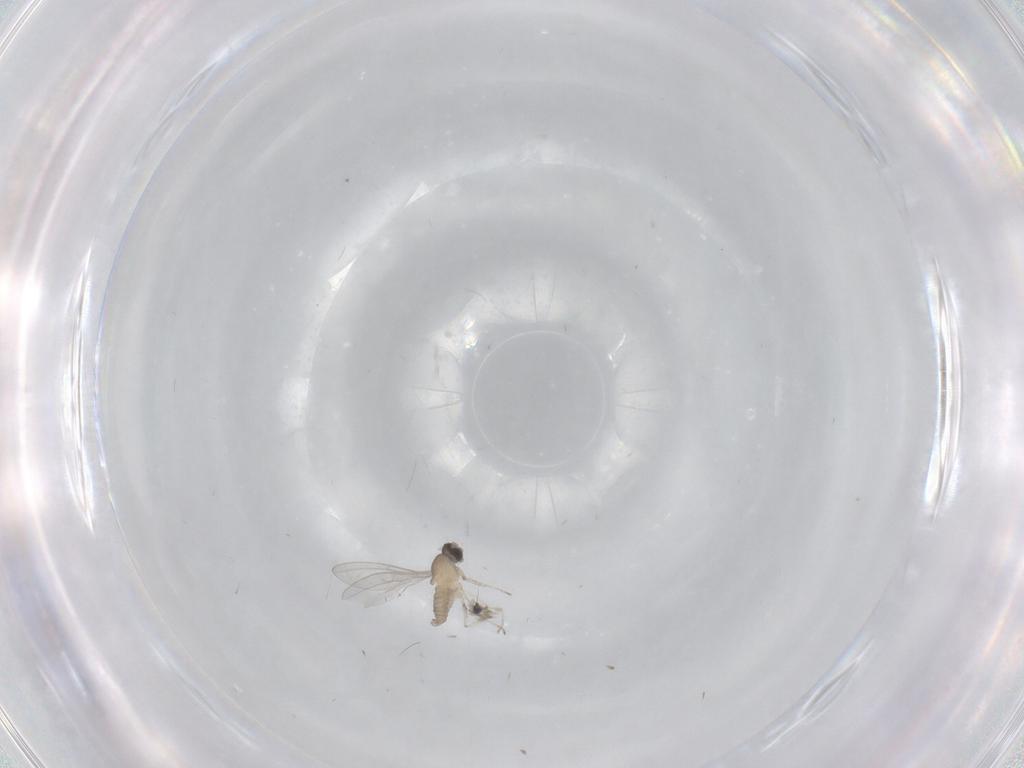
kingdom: Animalia
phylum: Arthropoda
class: Insecta
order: Diptera
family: Cecidomyiidae
